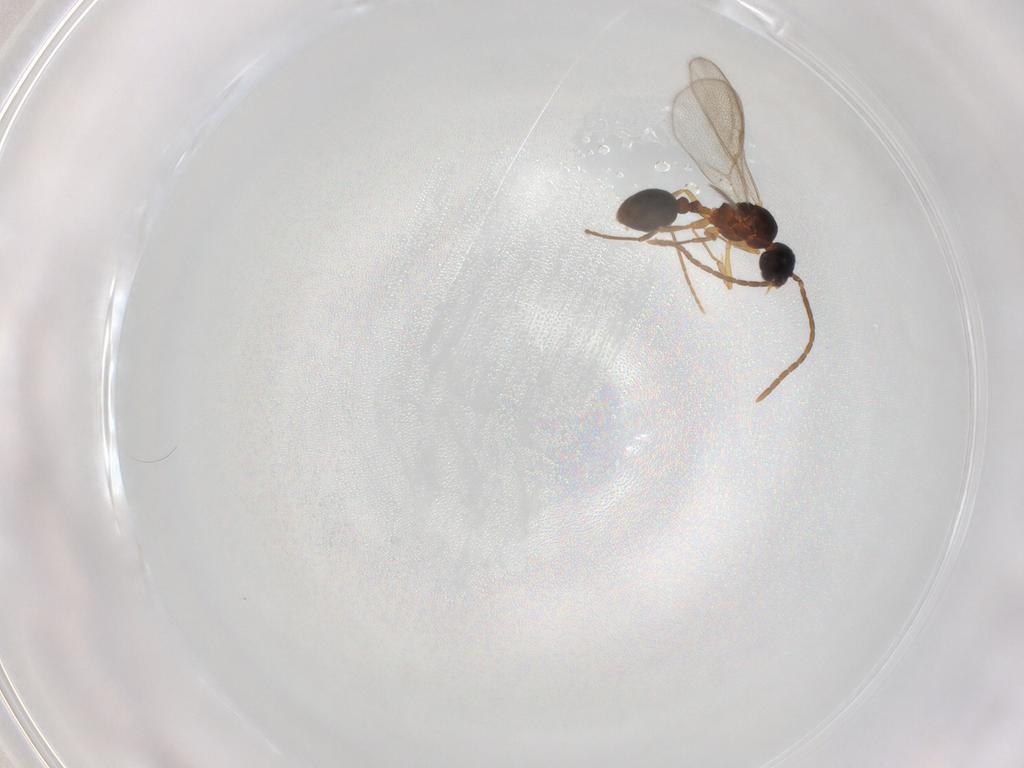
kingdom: Animalia
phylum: Arthropoda
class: Insecta
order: Hymenoptera
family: Formicidae
